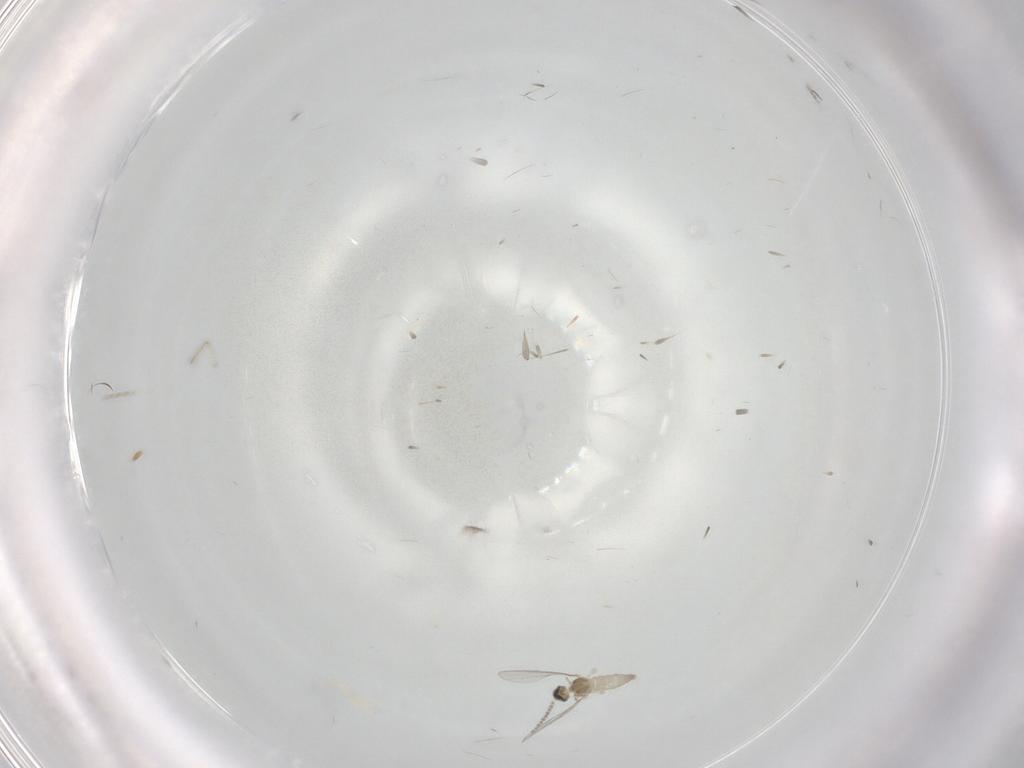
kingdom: Animalia
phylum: Arthropoda
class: Insecta
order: Diptera
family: Cecidomyiidae
